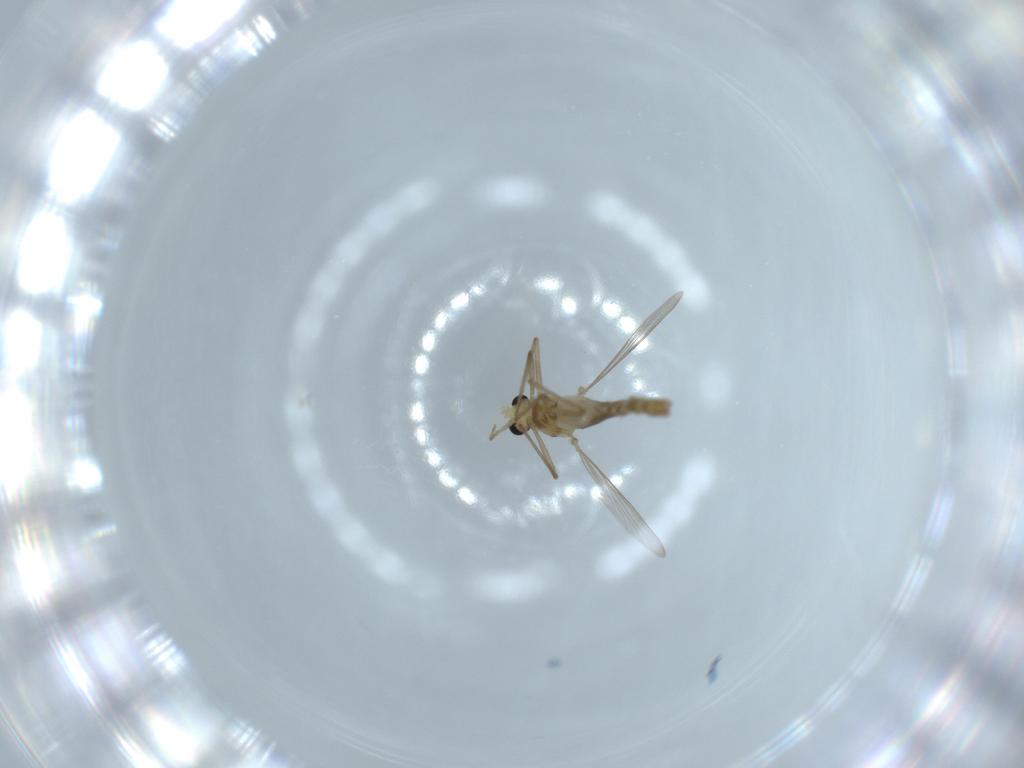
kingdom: Animalia
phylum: Arthropoda
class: Insecta
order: Diptera
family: Chironomidae
